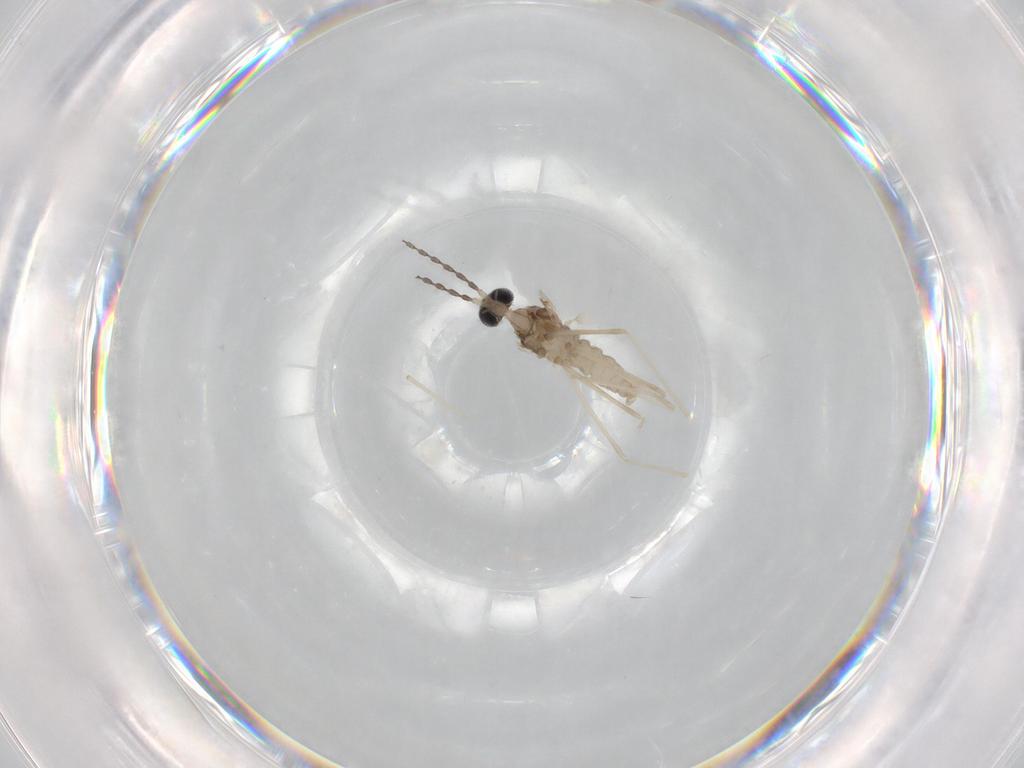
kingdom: Animalia
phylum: Arthropoda
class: Insecta
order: Diptera
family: Cecidomyiidae
